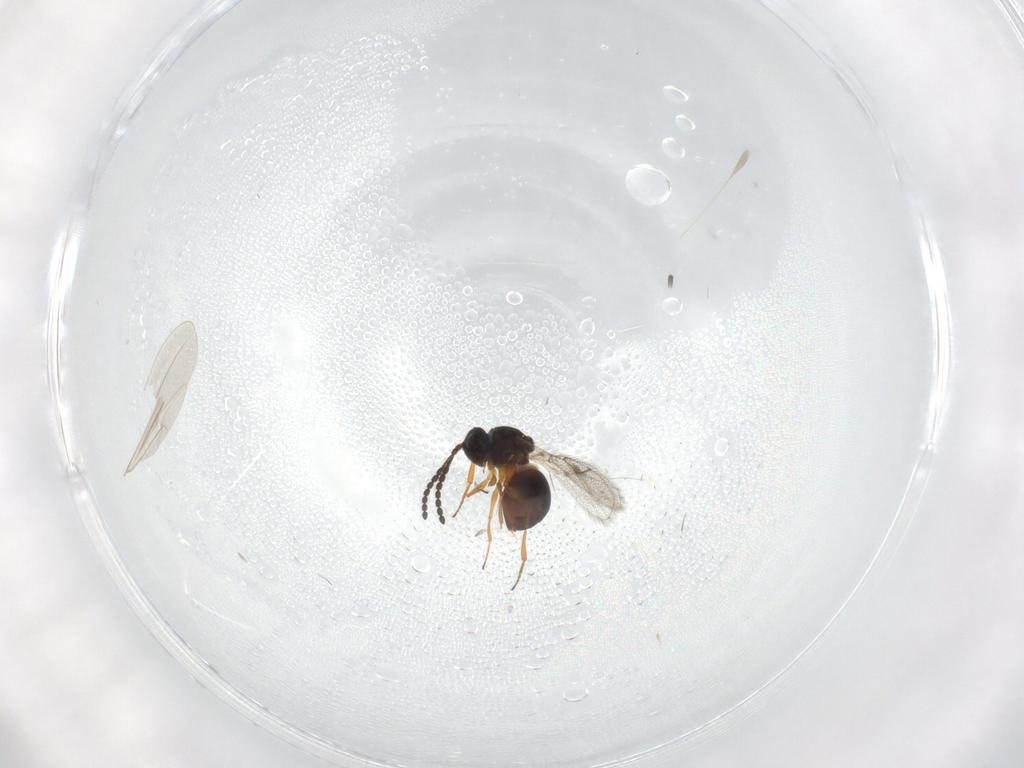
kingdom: Animalia
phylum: Arthropoda
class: Insecta
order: Hymenoptera
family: Figitidae
